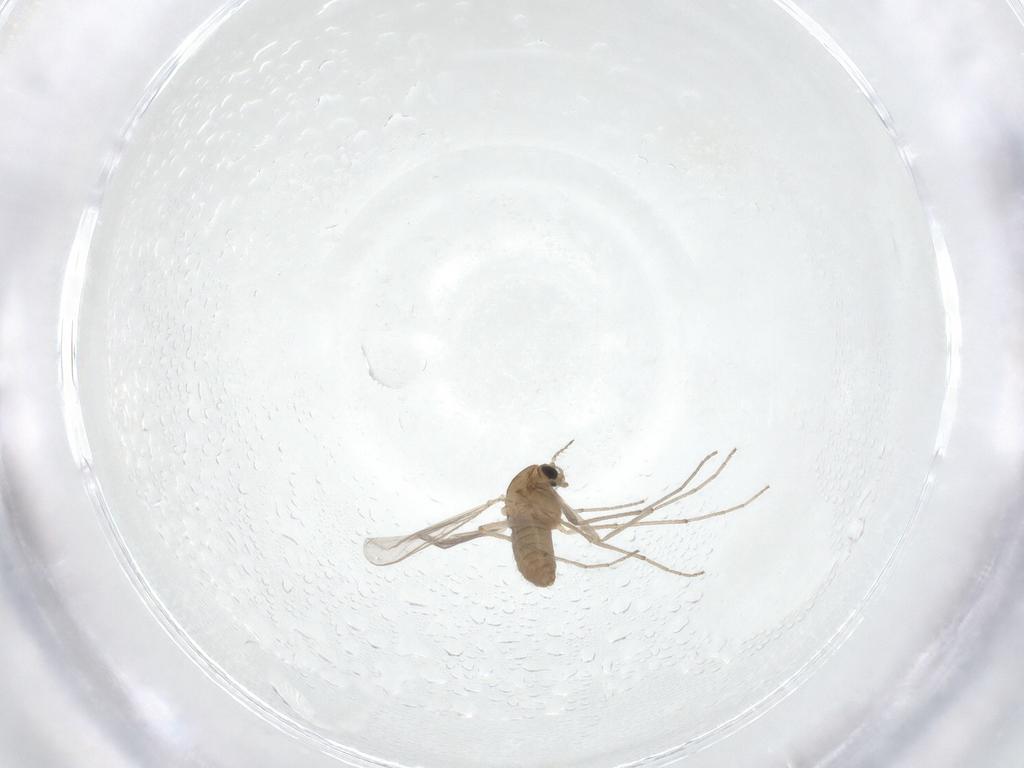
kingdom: Animalia
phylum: Arthropoda
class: Insecta
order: Diptera
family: Chironomidae
